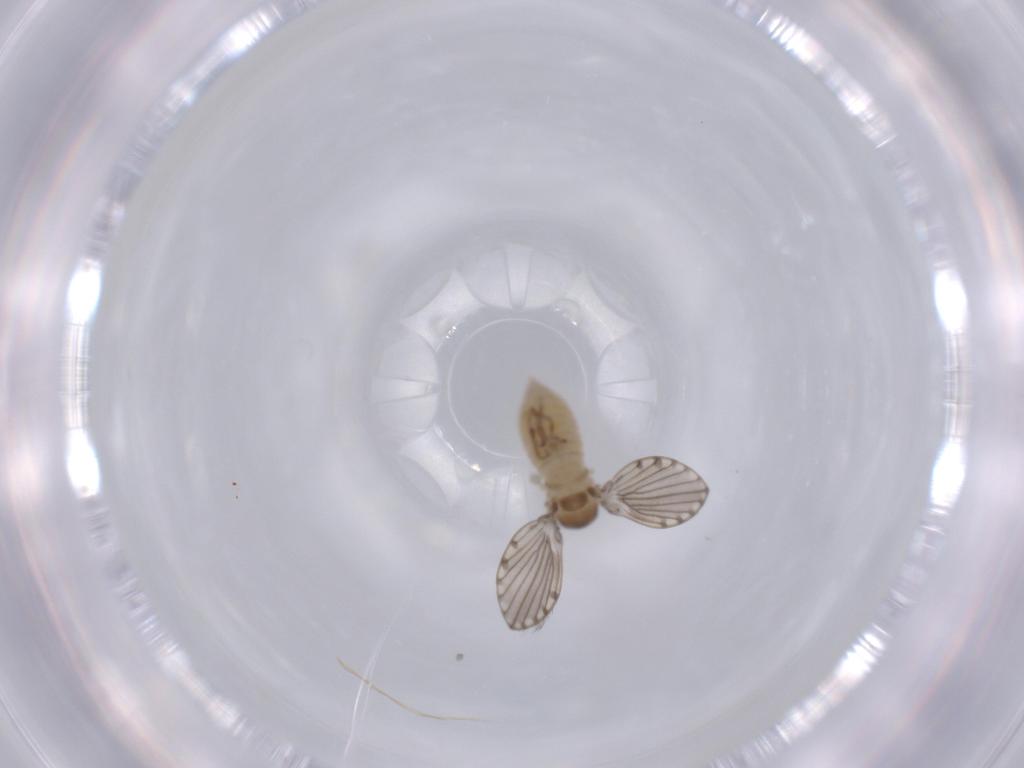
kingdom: Animalia
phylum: Arthropoda
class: Insecta
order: Diptera
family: Psychodidae
